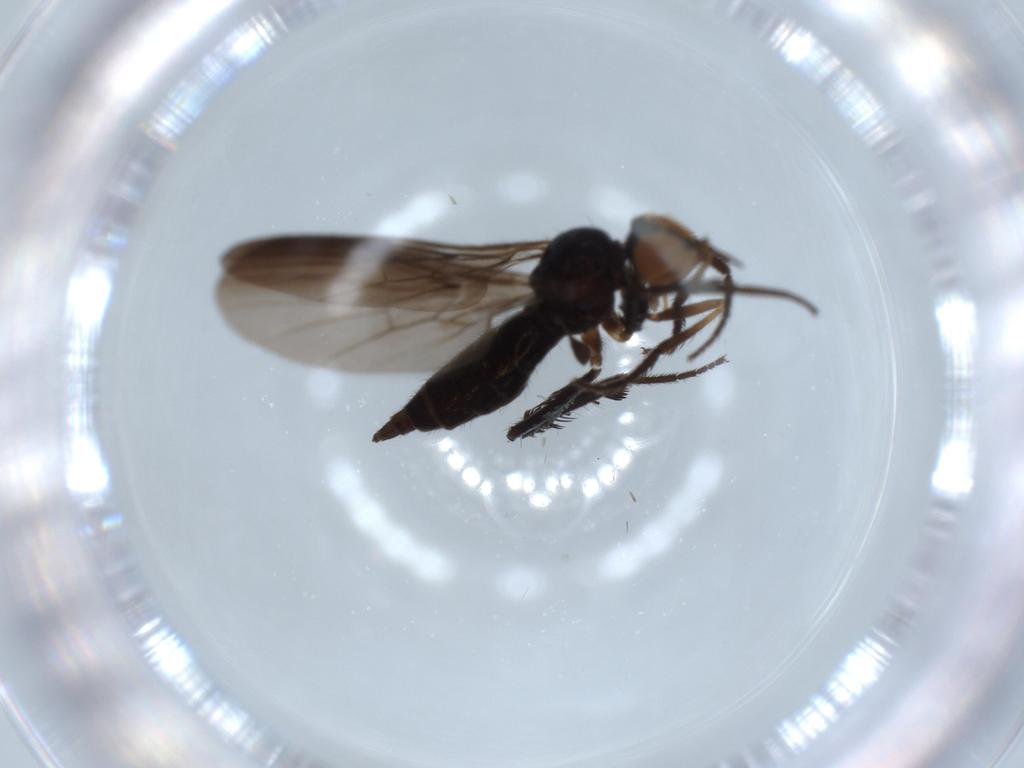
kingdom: Animalia
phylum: Arthropoda
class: Insecta
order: Diptera
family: Empididae
